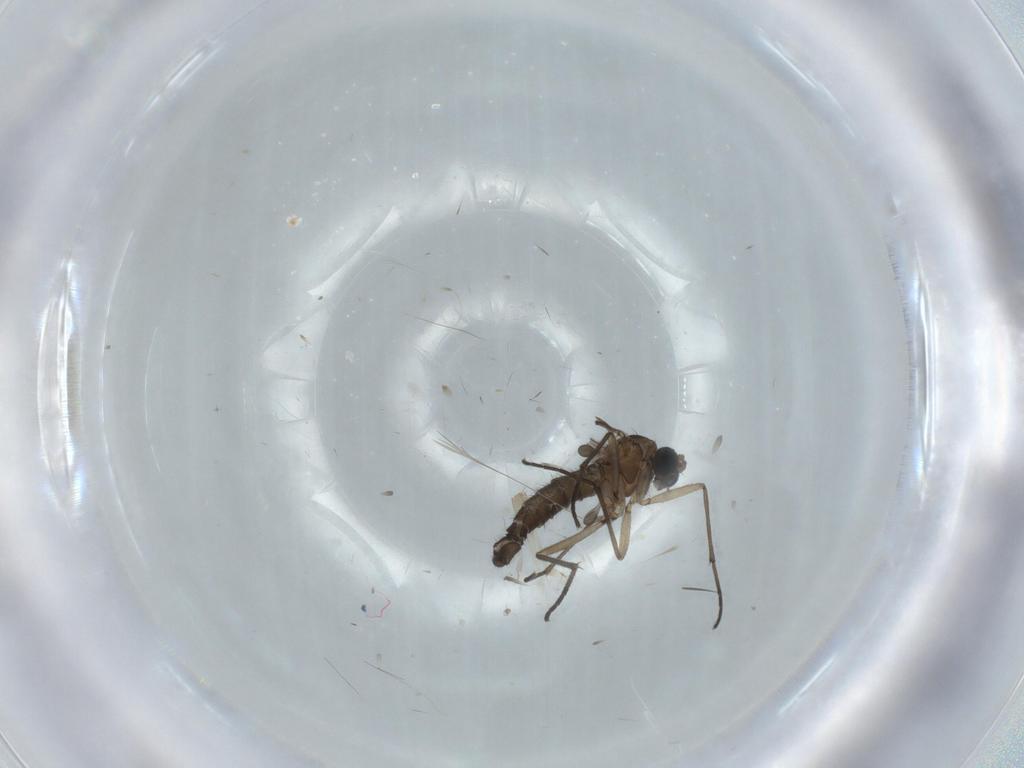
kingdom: Animalia
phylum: Arthropoda
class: Insecta
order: Diptera
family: Sciaridae
